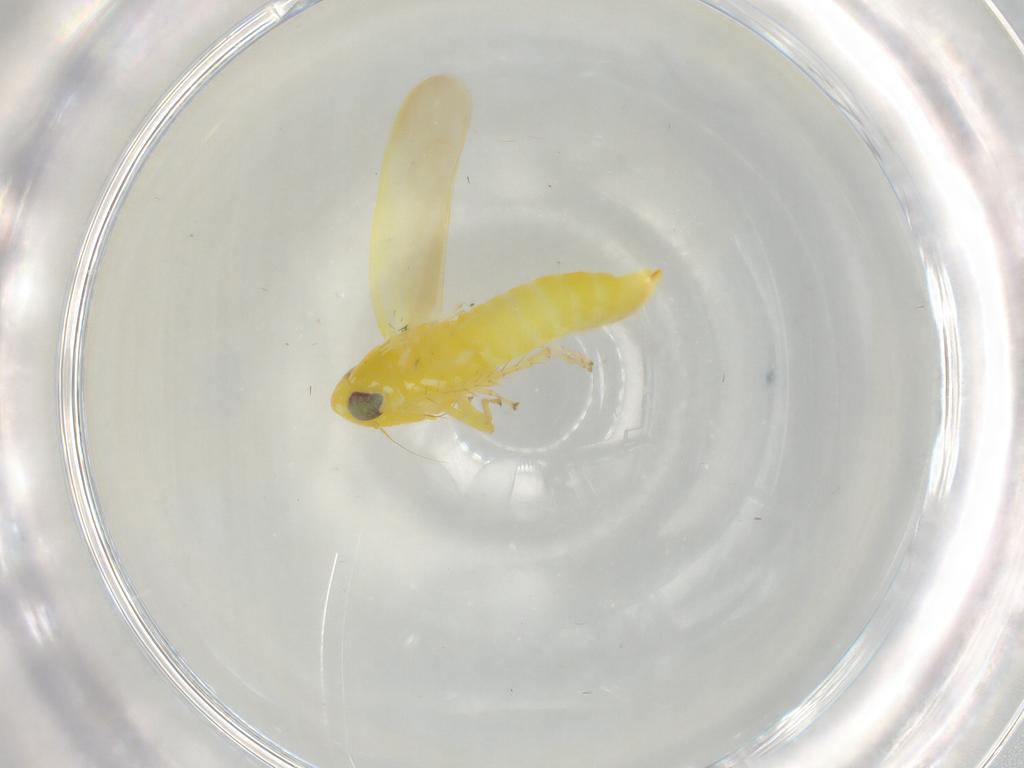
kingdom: Animalia
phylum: Arthropoda
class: Insecta
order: Hemiptera
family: Cicadellidae
